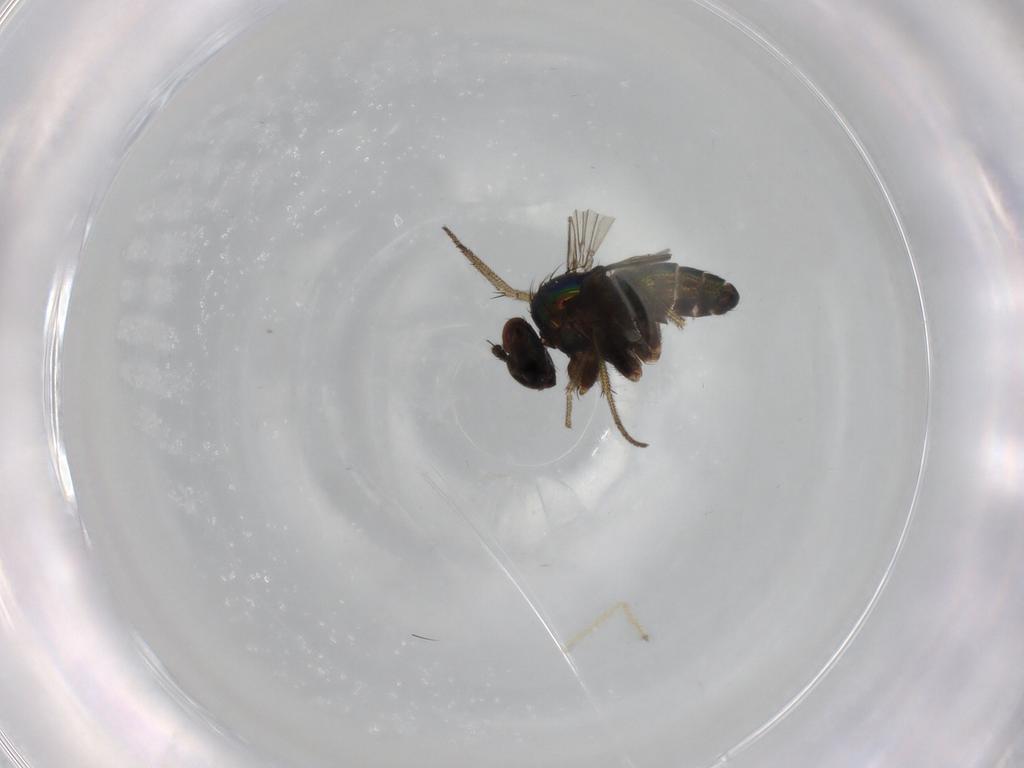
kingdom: Animalia
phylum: Arthropoda
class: Insecta
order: Diptera
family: Chironomidae
